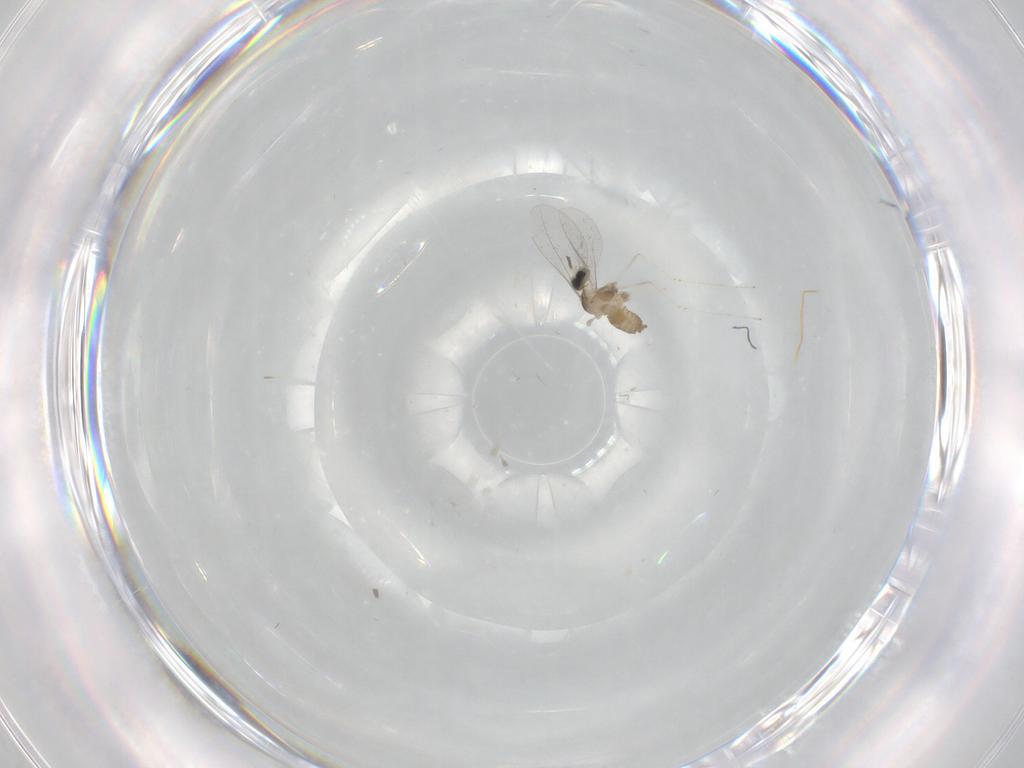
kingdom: Animalia
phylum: Arthropoda
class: Insecta
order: Diptera
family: Cecidomyiidae
